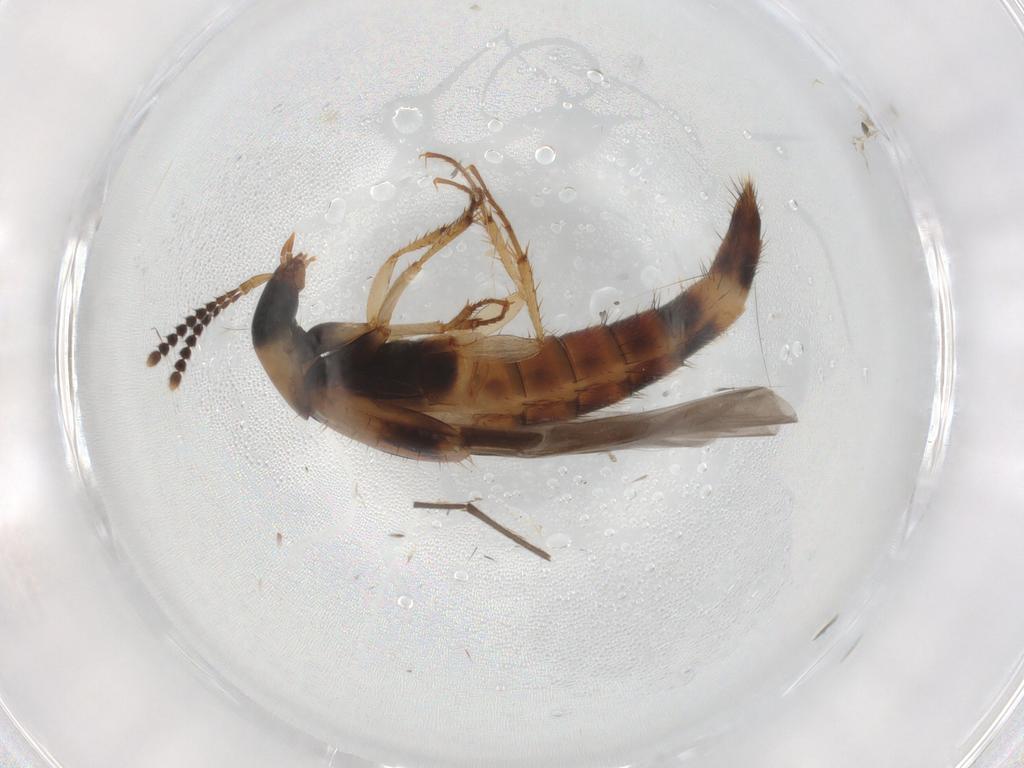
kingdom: Animalia
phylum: Arthropoda
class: Insecta
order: Coleoptera
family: Staphylinidae
